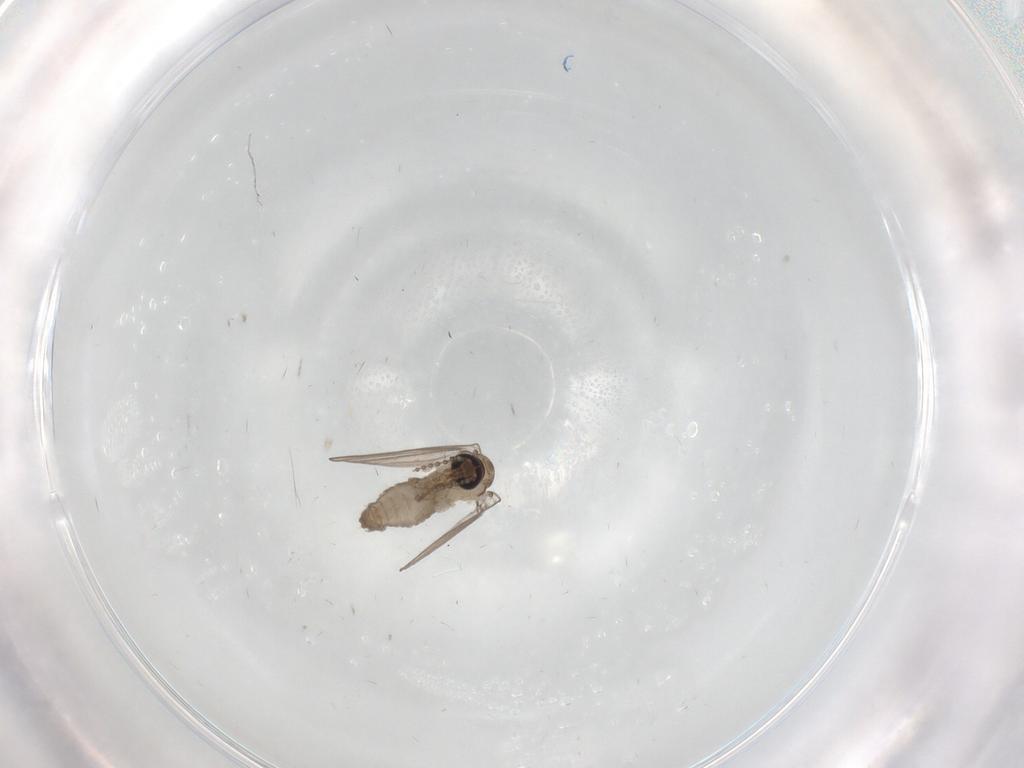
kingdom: Animalia
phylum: Arthropoda
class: Insecta
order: Diptera
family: Psychodidae
